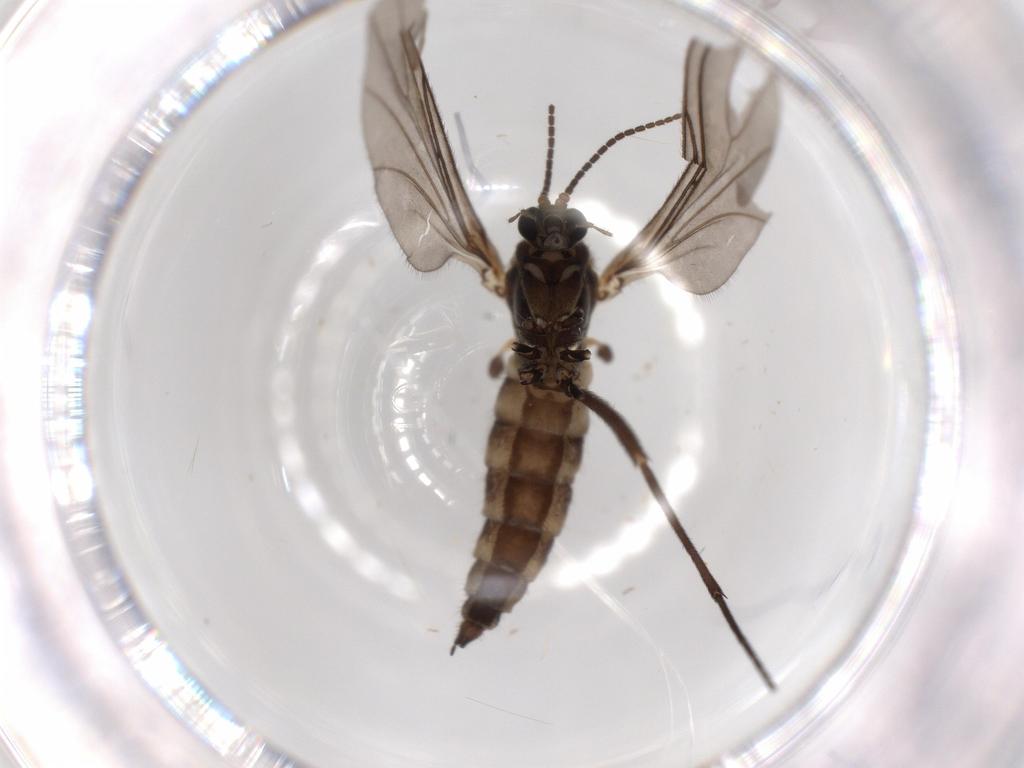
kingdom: Animalia
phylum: Arthropoda
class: Insecta
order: Diptera
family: Sciaridae
